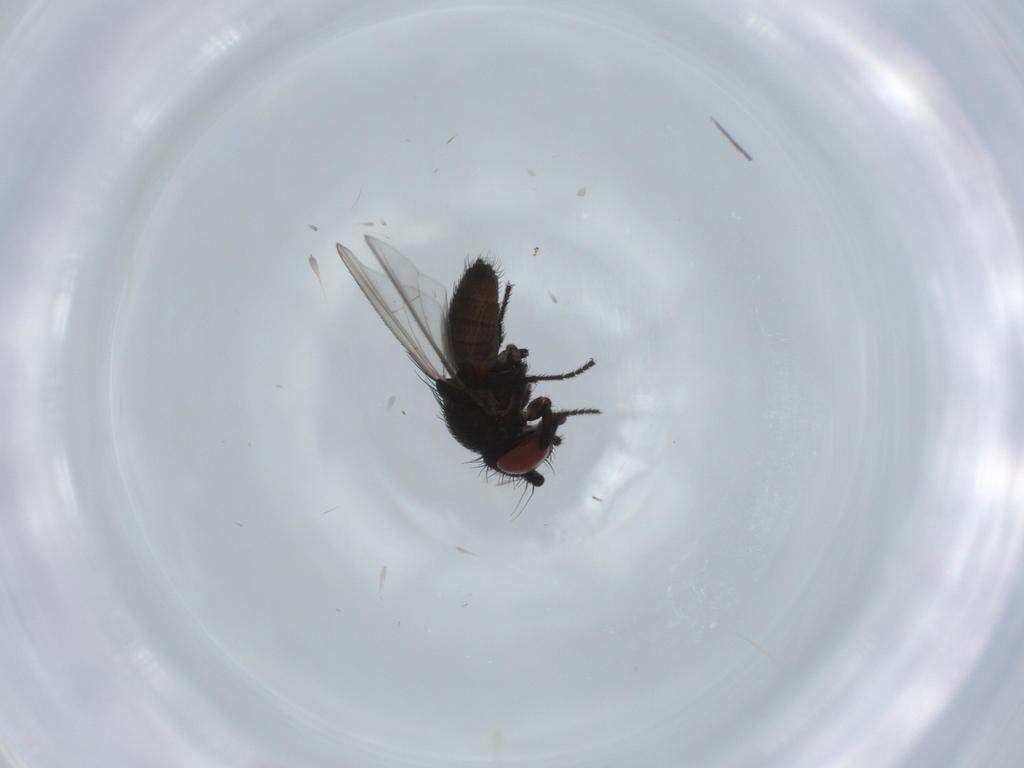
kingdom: Animalia
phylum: Arthropoda
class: Insecta
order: Diptera
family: Milichiidae
